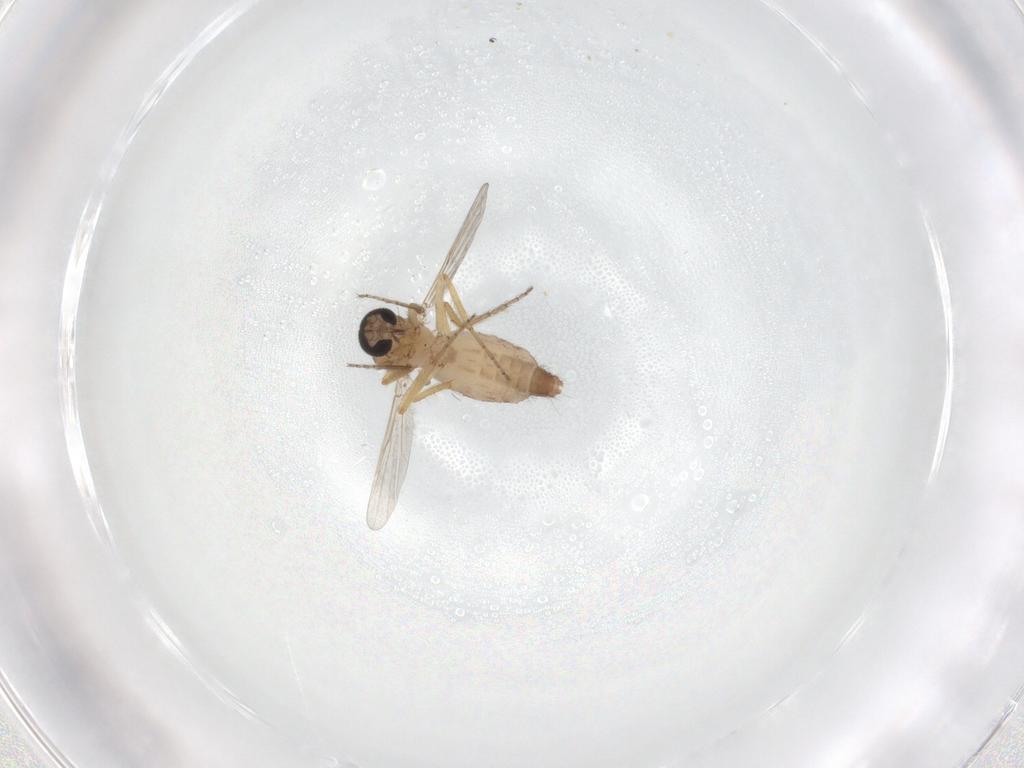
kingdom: Animalia
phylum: Arthropoda
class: Insecta
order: Diptera
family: Ceratopogonidae
